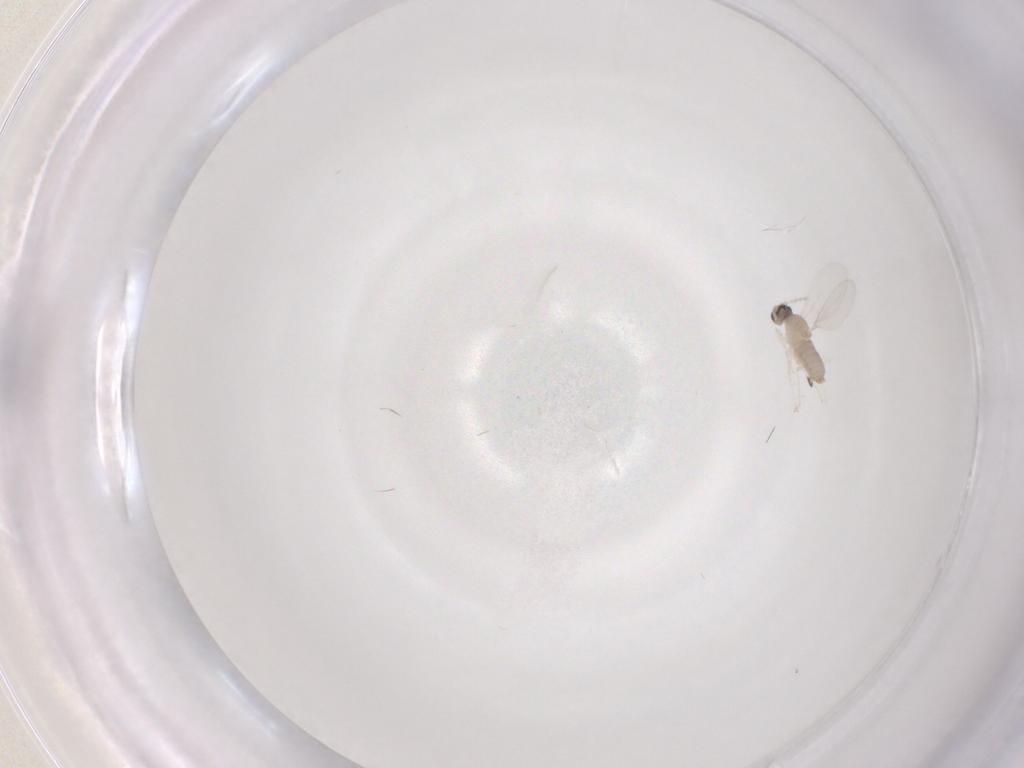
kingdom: Animalia
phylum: Arthropoda
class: Insecta
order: Diptera
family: Cecidomyiidae
